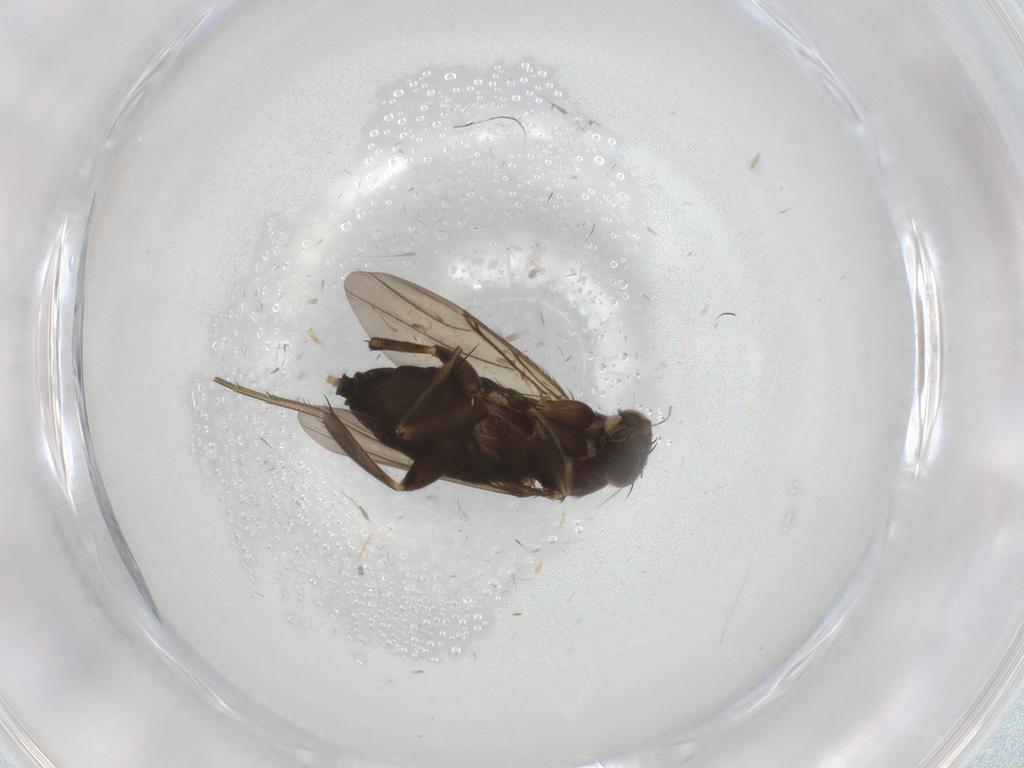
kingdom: Animalia
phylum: Arthropoda
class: Insecta
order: Diptera
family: Phoridae
